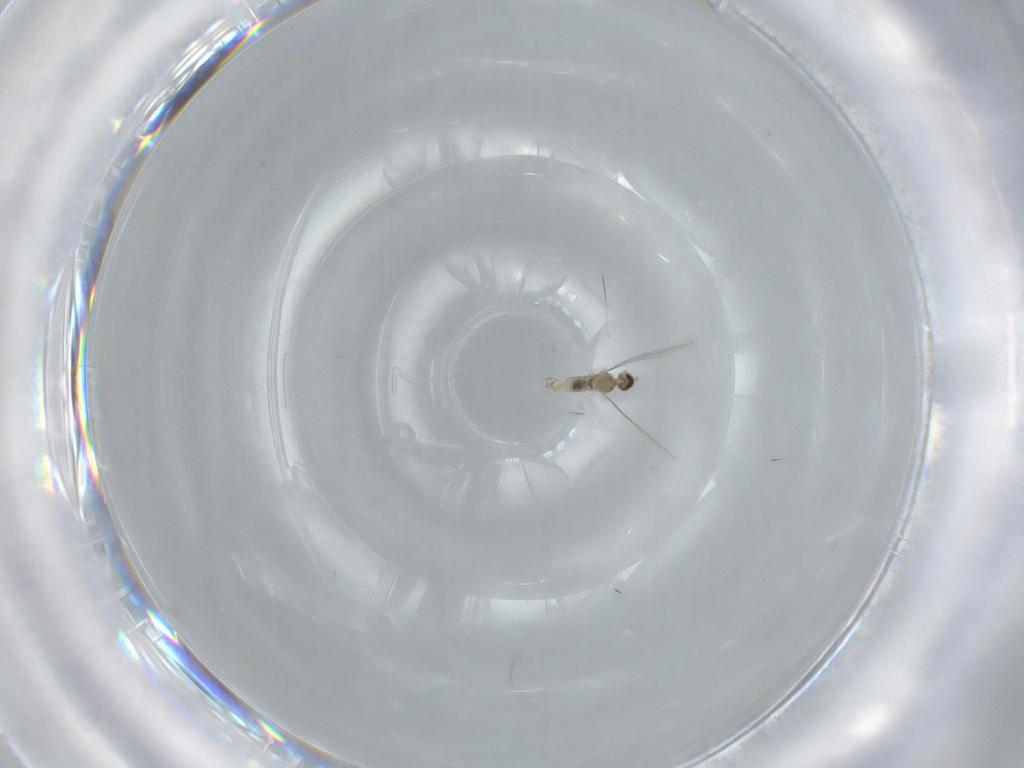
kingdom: Animalia
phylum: Arthropoda
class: Insecta
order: Diptera
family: Cecidomyiidae
